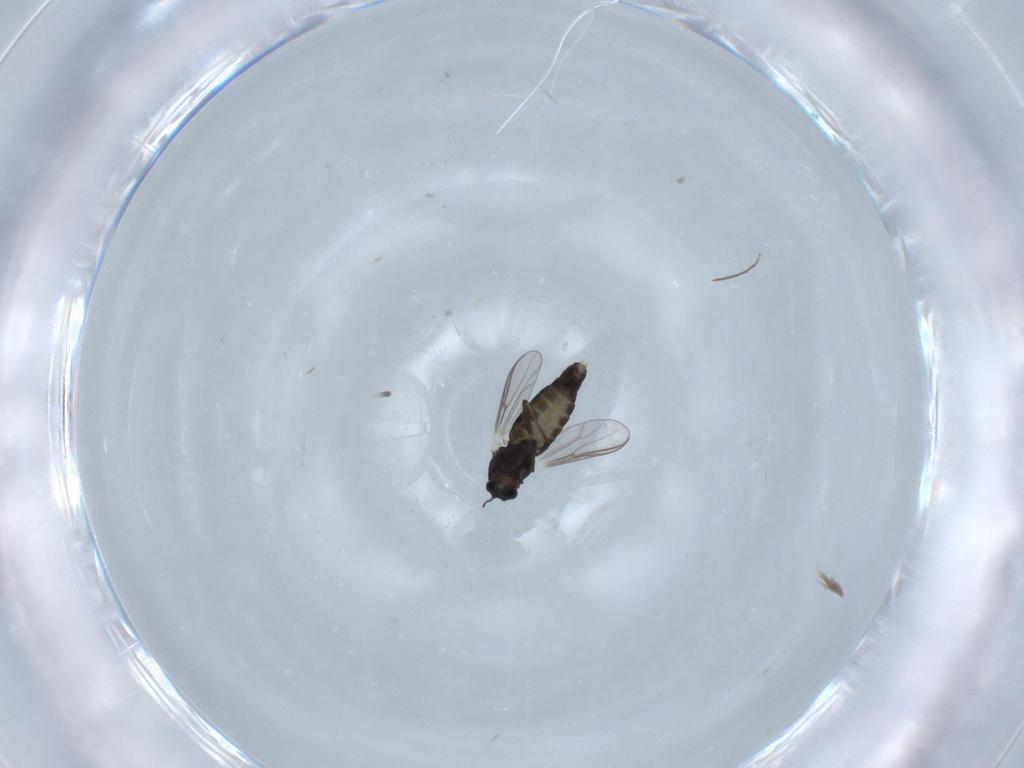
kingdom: Animalia
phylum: Arthropoda
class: Insecta
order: Diptera
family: Chironomidae
